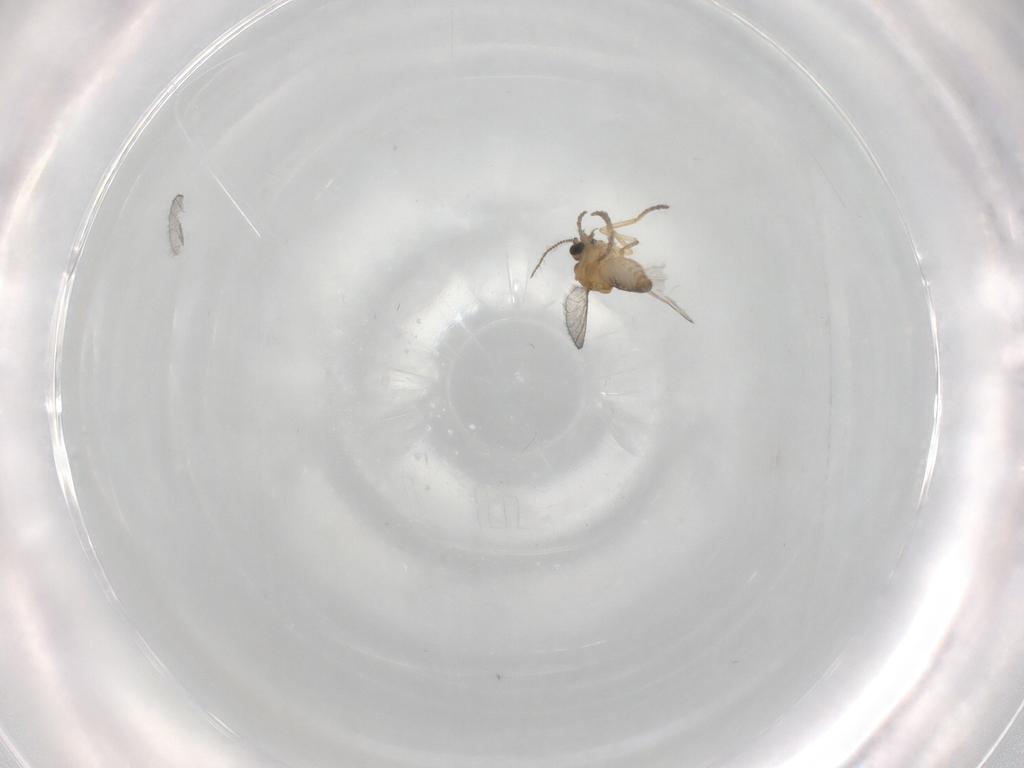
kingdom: Animalia
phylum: Arthropoda
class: Insecta
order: Diptera
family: Ceratopogonidae
